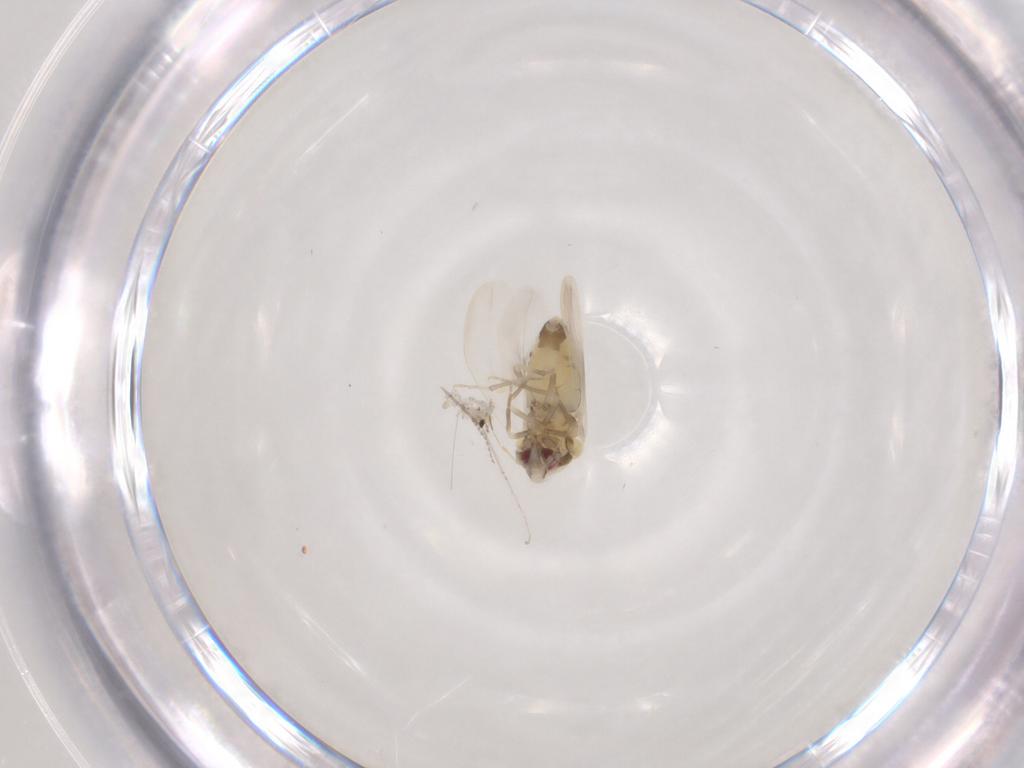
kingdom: Animalia
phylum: Arthropoda
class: Insecta
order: Hemiptera
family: Aleyrodidae
